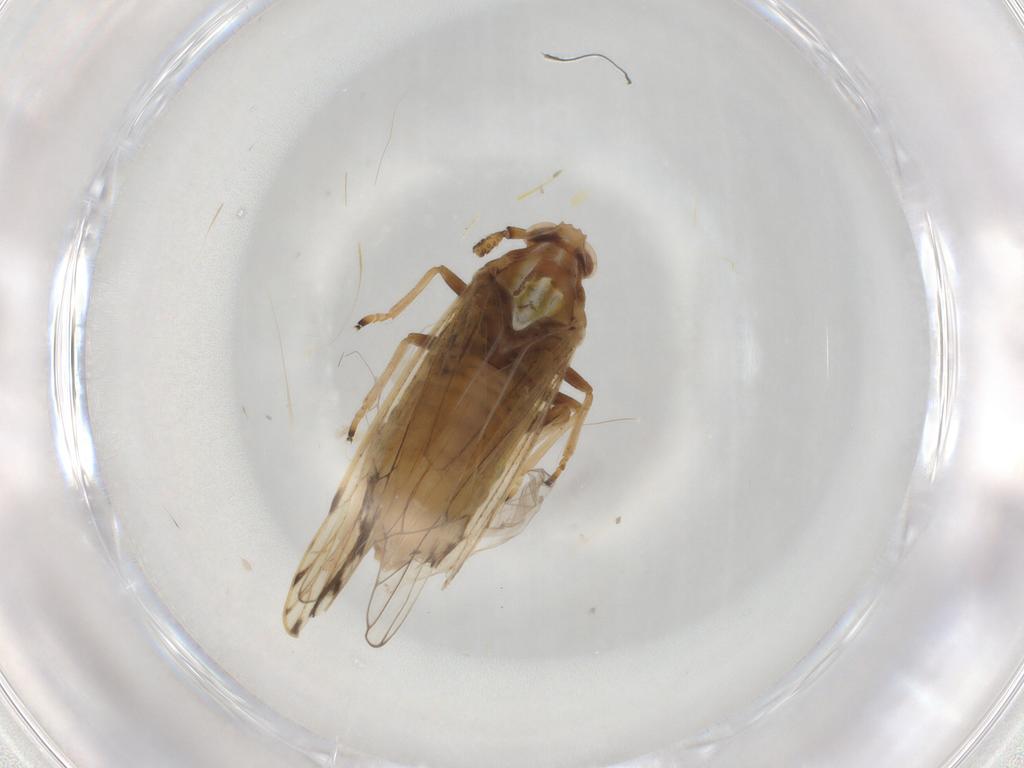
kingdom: Animalia
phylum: Arthropoda
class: Insecta
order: Hemiptera
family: Delphacidae
